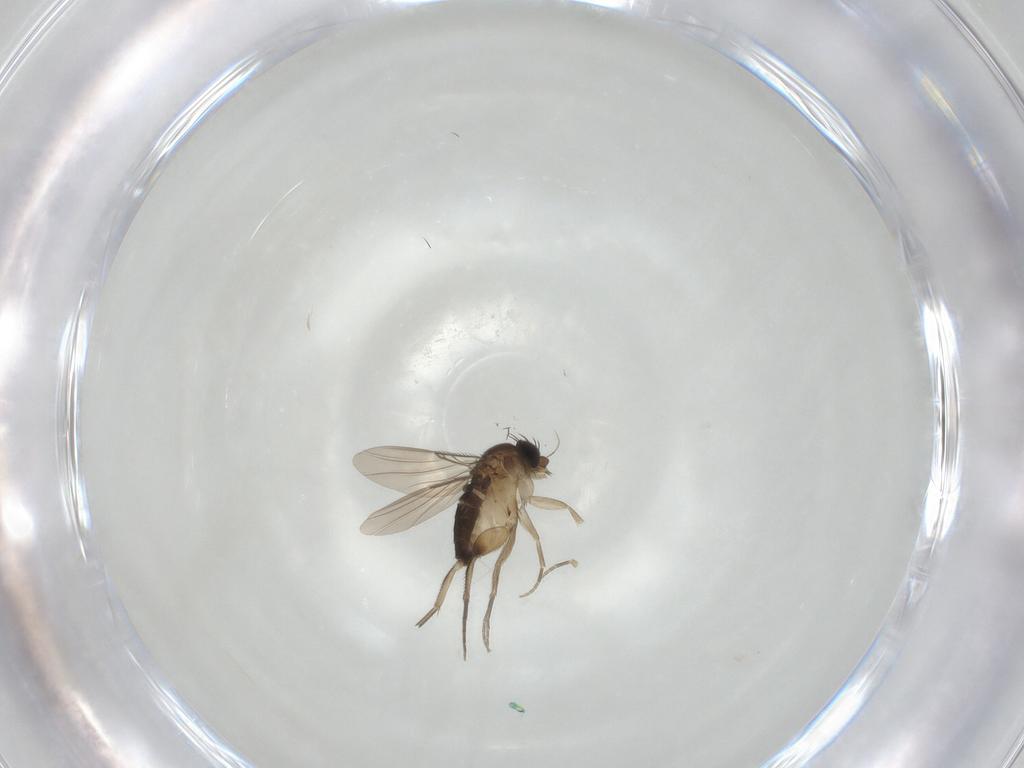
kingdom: Animalia
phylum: Arthropoda
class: Insecta
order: Diptera
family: Phoridae
